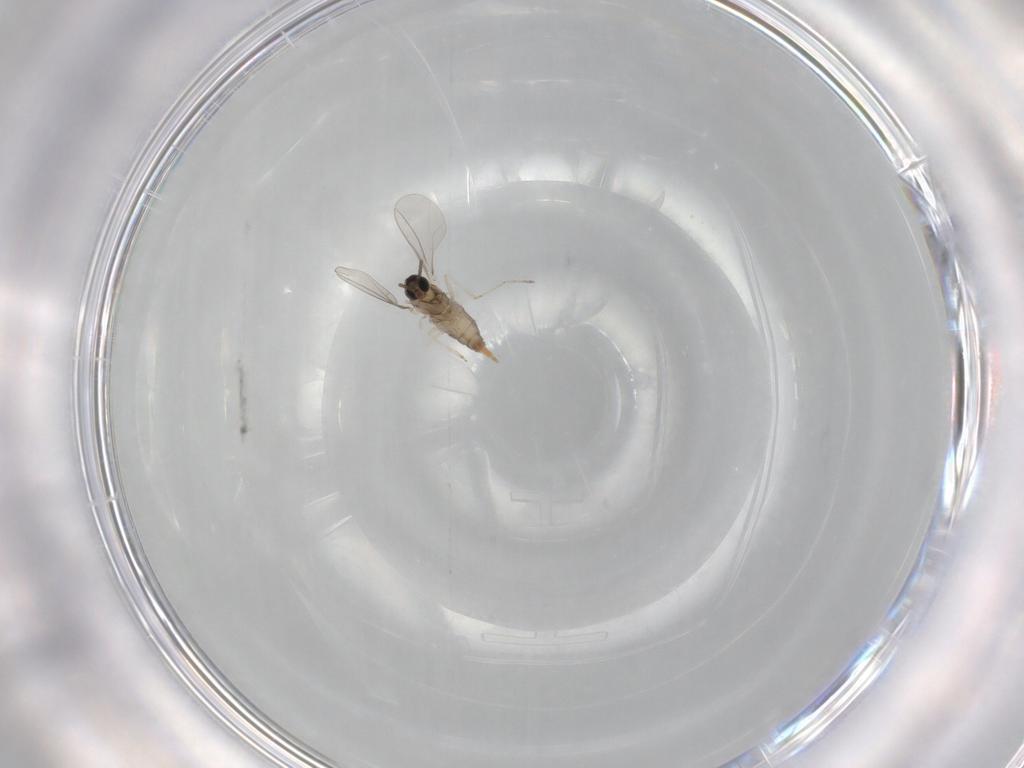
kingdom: Animalia
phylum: Arthropoda
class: Insecta
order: Diptera
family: Cecidomyiidae
